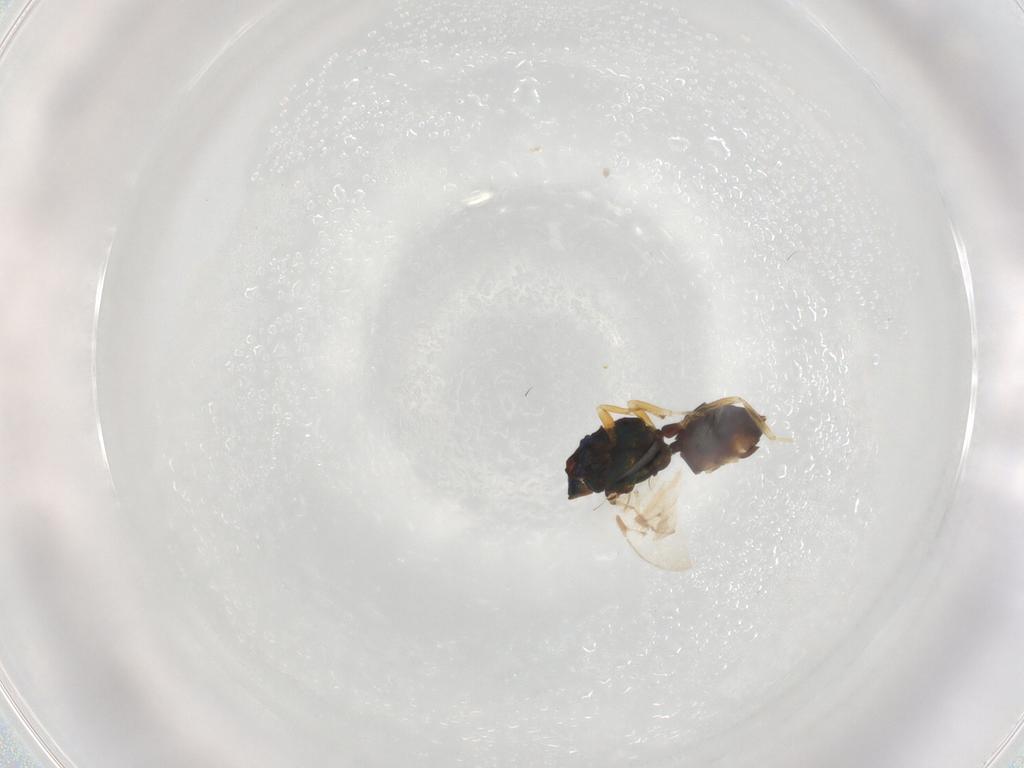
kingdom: Animalia
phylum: Arthropoda
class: Insecta
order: Hymenoptera
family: Pteromalidae
